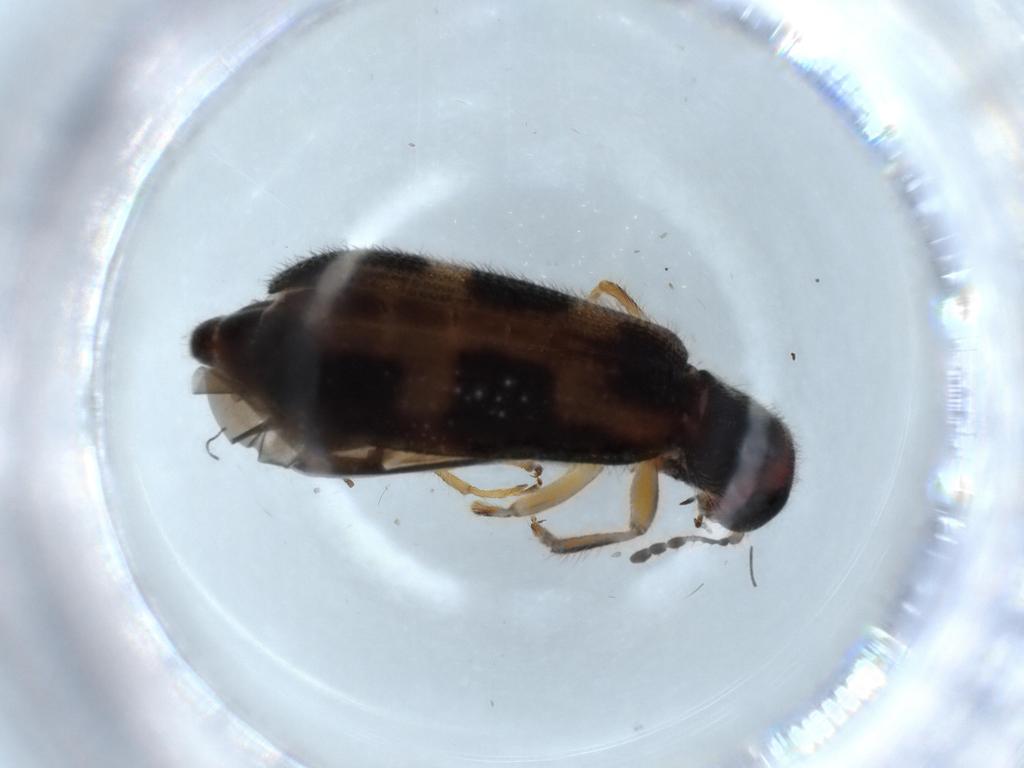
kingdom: Animalia
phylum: Arthropoda
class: Insecta
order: Coleoptera
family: Cleridae
